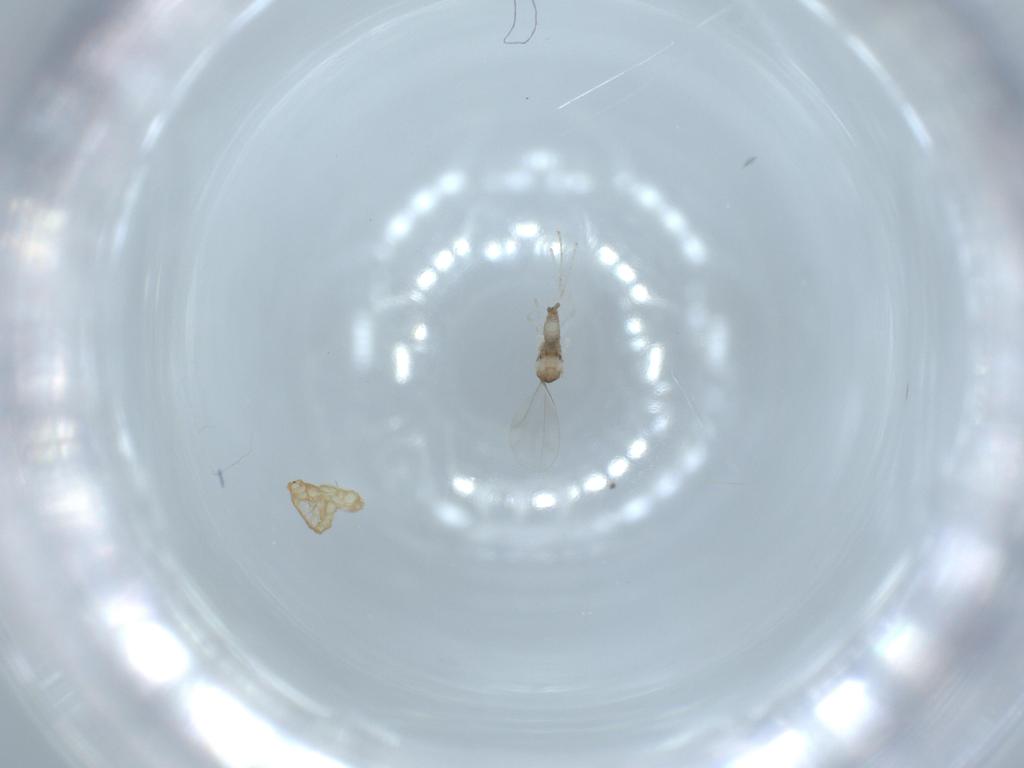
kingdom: Animalia
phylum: Arthropoda
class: Insecta
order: Diptera
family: Cecidomyiidae
